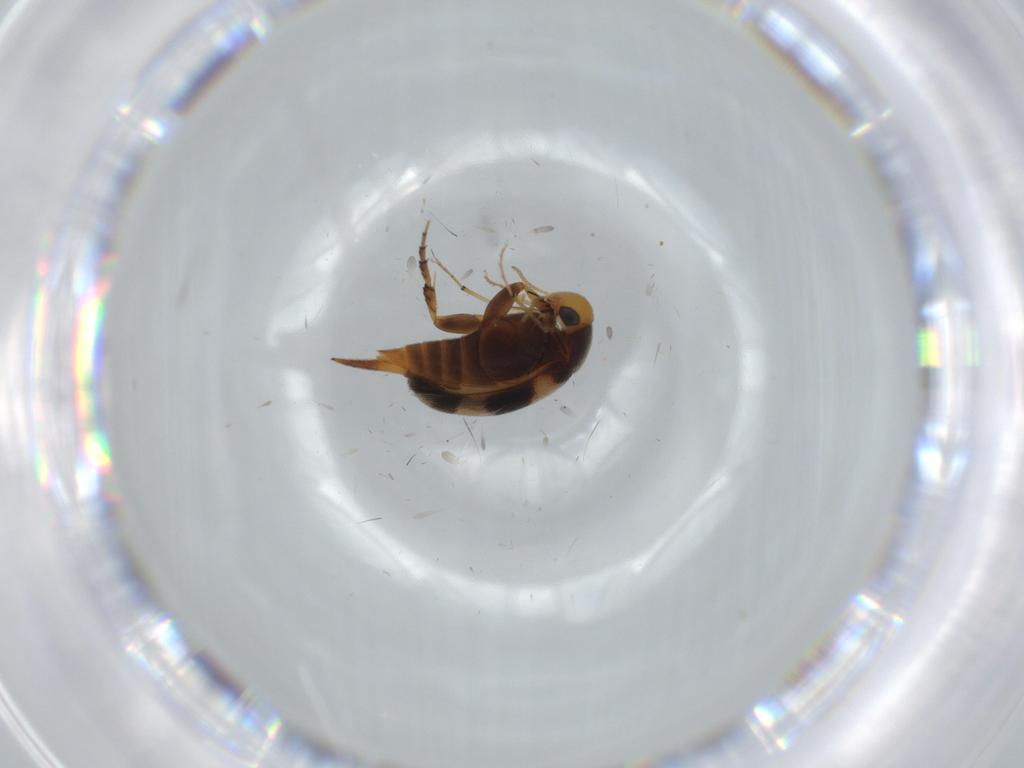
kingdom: Animalia
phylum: Arthropoda
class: Insecta
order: Coleoptera
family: Mordellidae
